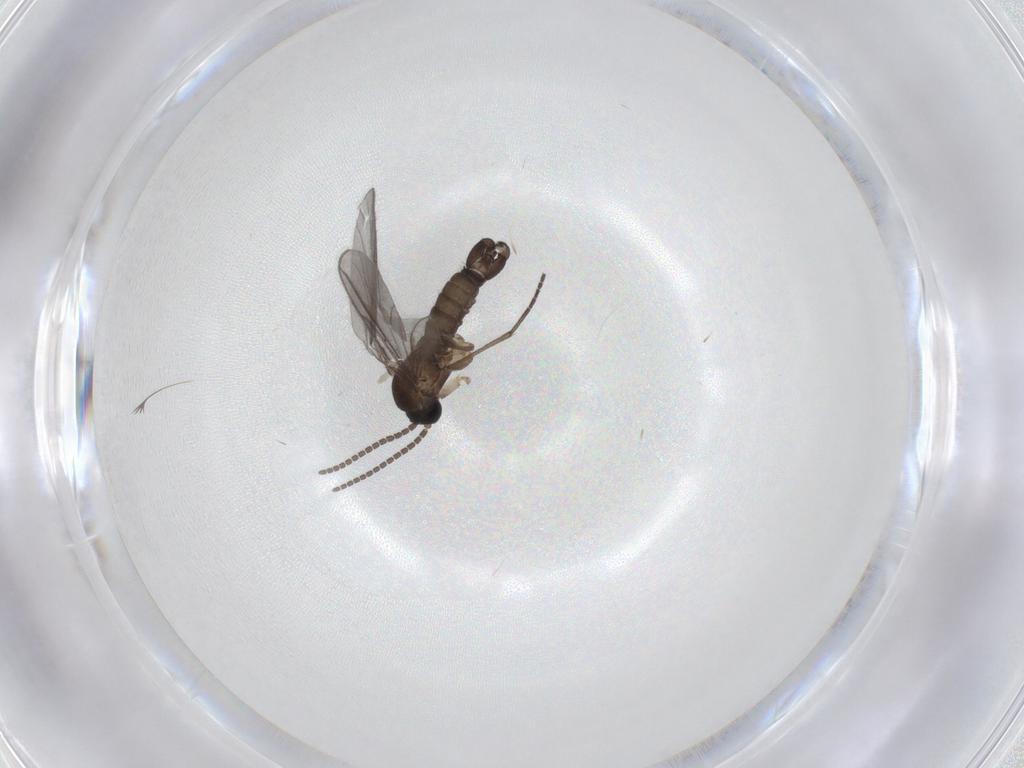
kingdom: Animalia
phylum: Arthropoda
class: Insecta
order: Diptera
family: Sciaridae
